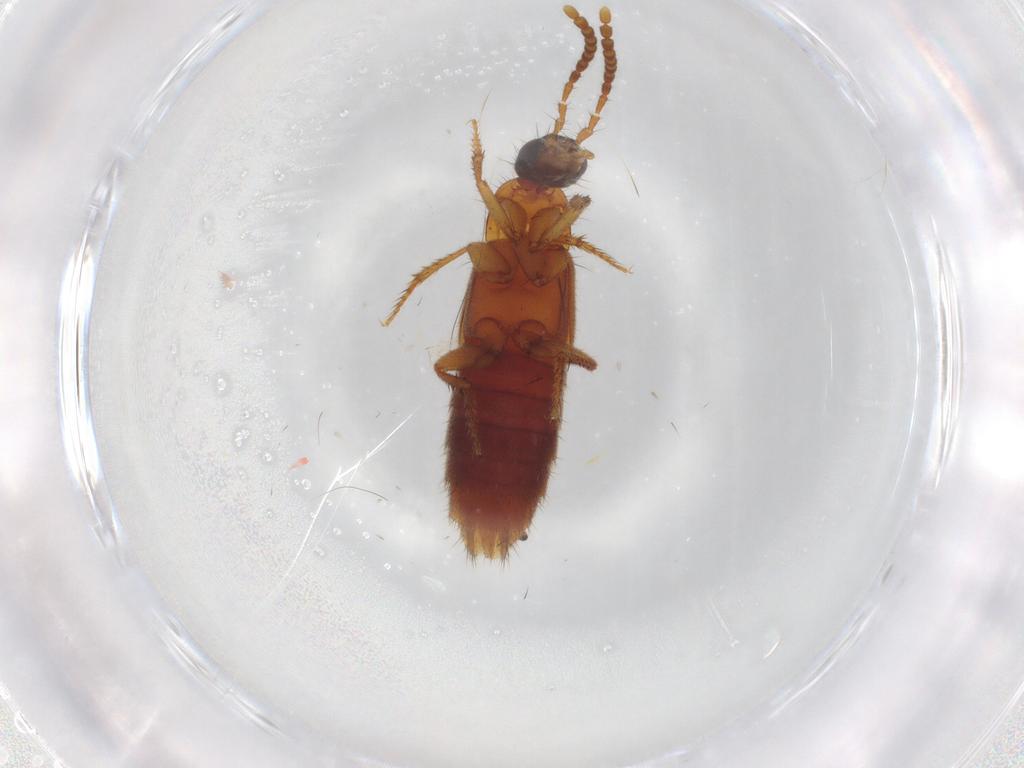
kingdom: Animalia
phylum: Arthropoda
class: Insecta
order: Coleoptera
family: Staphylinidae
